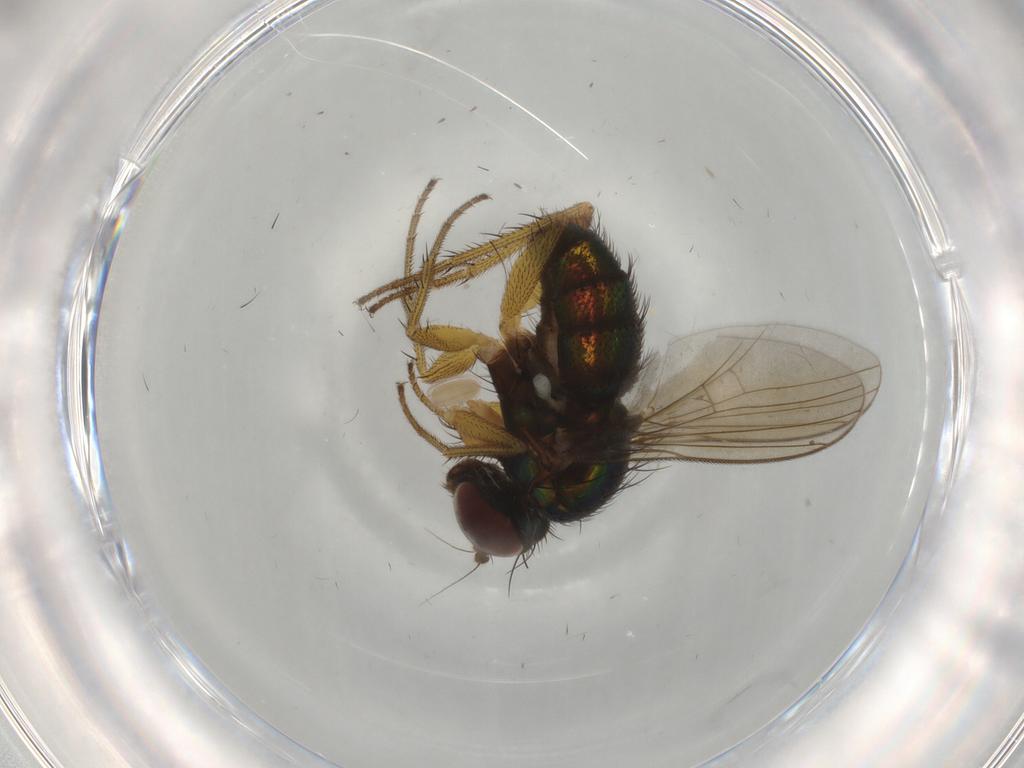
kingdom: Animalia
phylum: Arthropoda
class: Insecta
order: Diptera
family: Dolichopodidae
